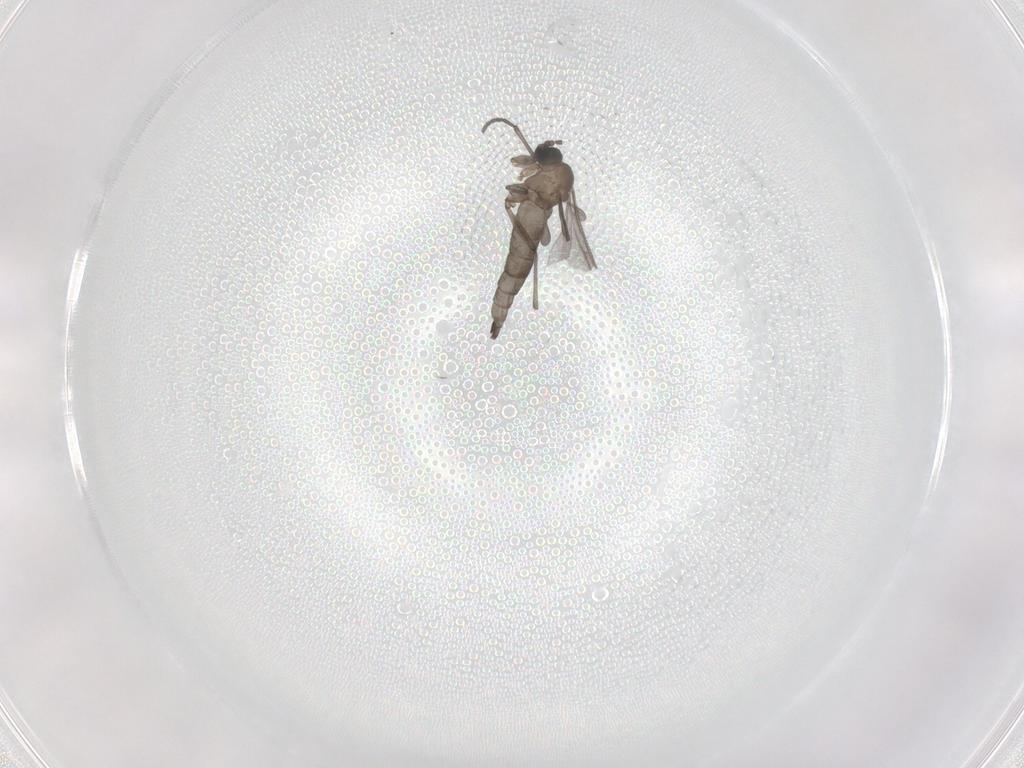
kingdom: Animalia
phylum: Arthropoda
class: Insecta
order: Diptera
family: Sciaridae
